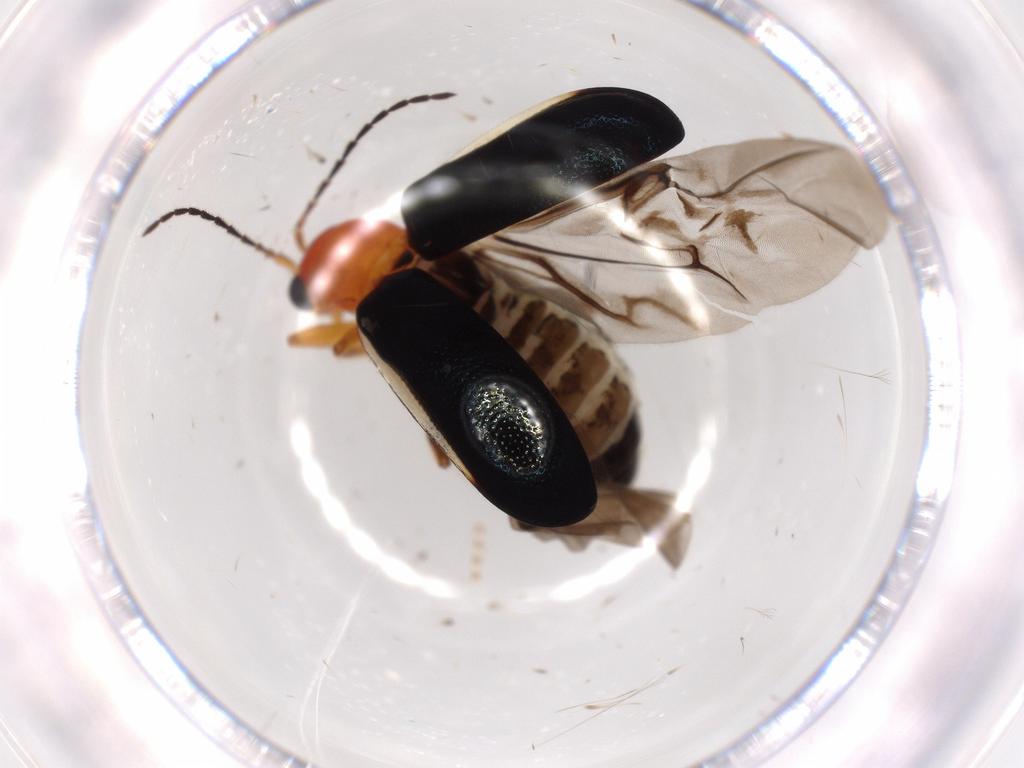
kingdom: Animalia
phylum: Arthropoda
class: Insecta
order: Coleoptera
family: Chrysomelidae
